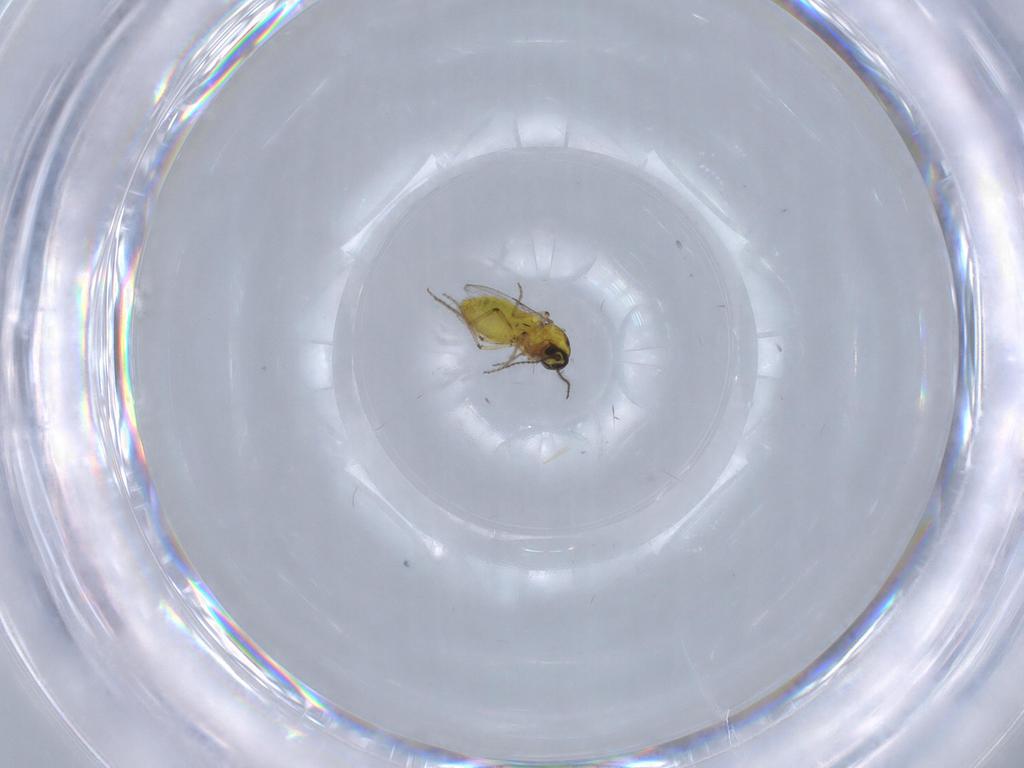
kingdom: Animalia
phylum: Arthropoda
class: Insecta
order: Diptera
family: Ceratopogonidae
